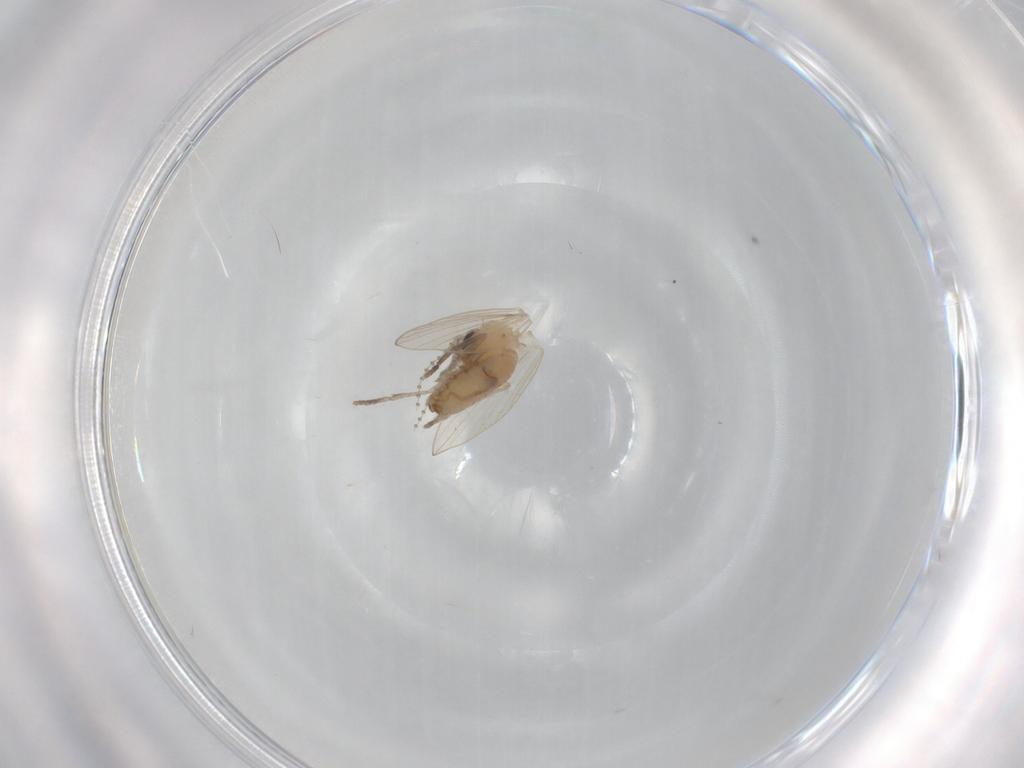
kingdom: Animalia
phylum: Arthropoda
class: Insecta
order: Diptera
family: Psychodidae
